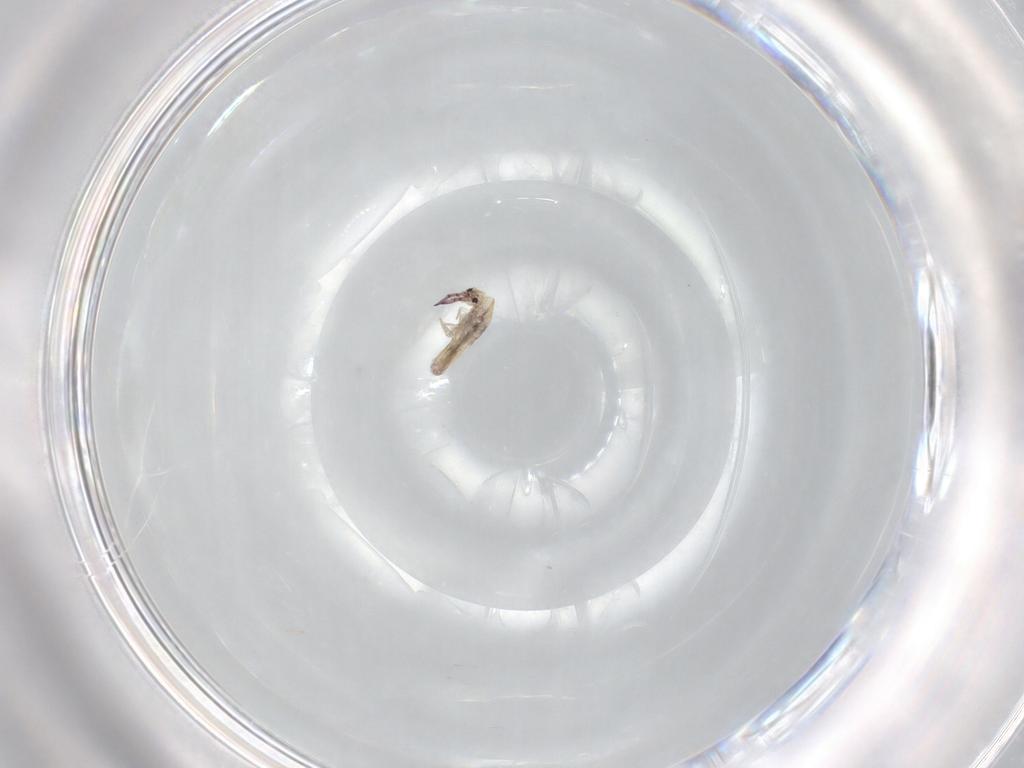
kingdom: Animalia
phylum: Arthropoda
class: Collembola
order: Entomobryomorpha
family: Entomobryidae
